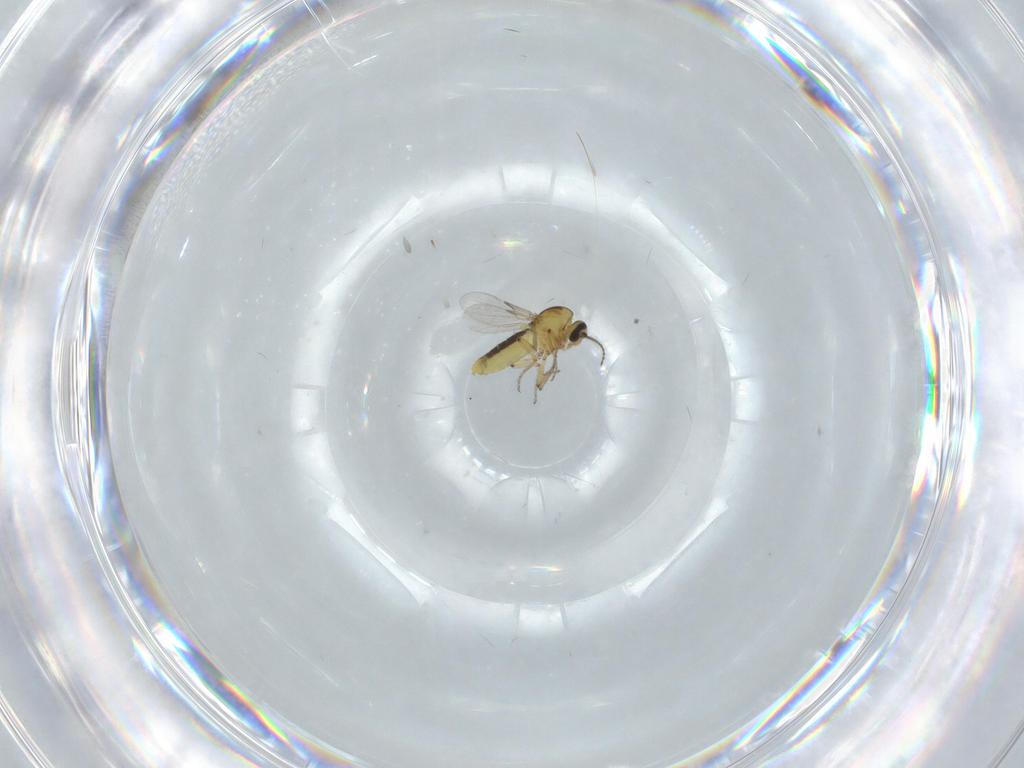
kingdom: Animalia
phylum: Arthropoda
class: Insecta
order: Diptera
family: Ceratopogonidae
